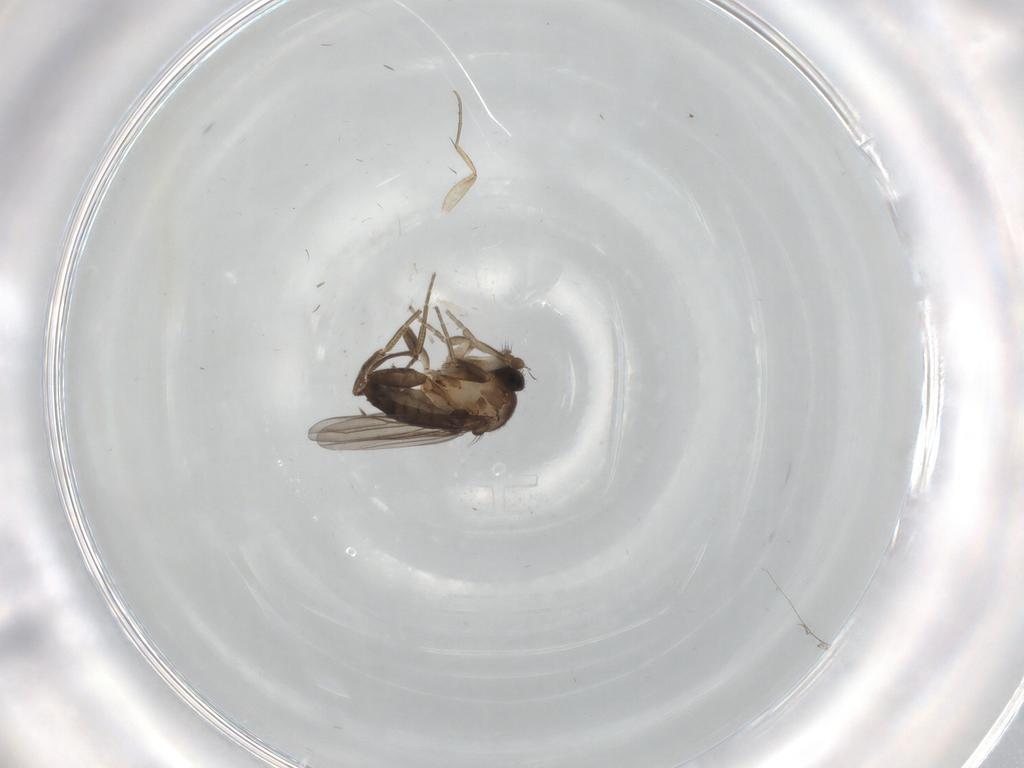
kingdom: Animalia
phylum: Arthropoda
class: Insecta
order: Diptera
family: Phoridae
